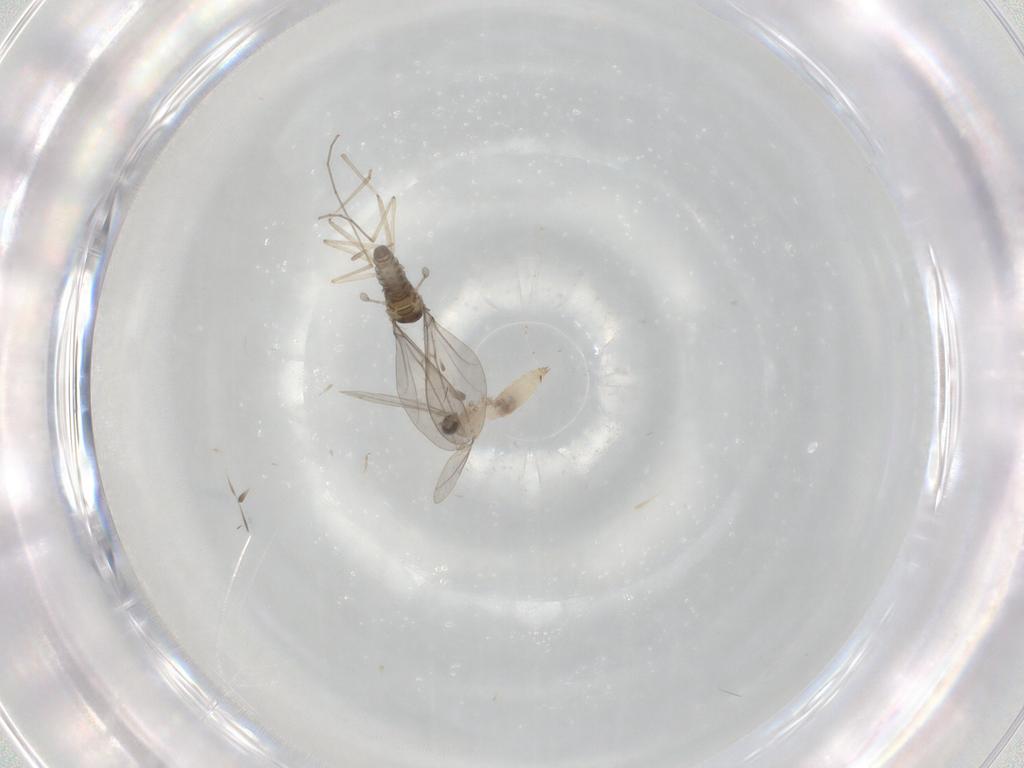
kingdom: Animalia
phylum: Arthropoda
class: Insecta
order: Diptera
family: Cecidomyiidae
